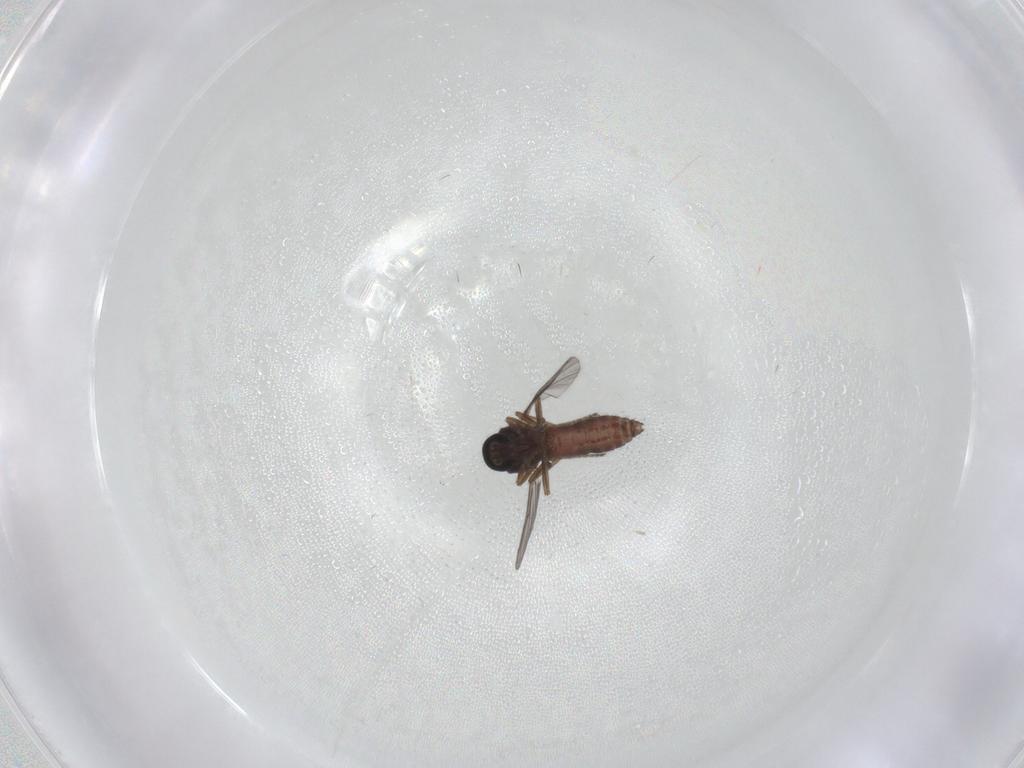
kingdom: Animalia
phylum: Arthropoda
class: Insecta
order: Diptera
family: Ceratopogonidae
